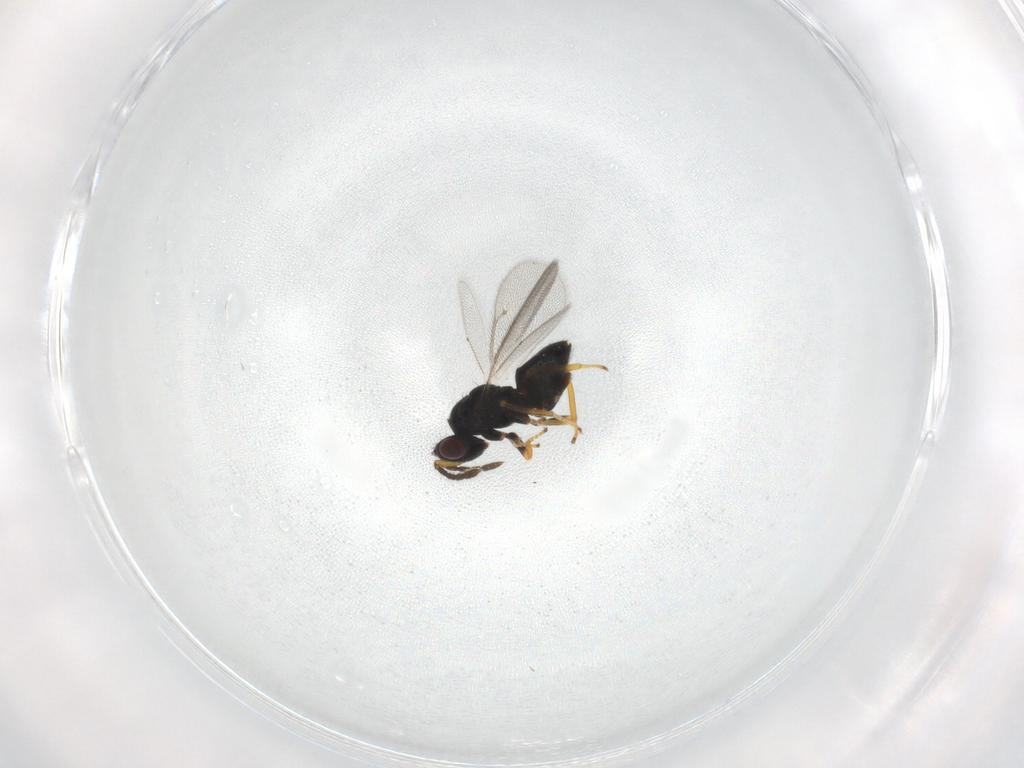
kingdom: Animalia
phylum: Arthropoda
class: Insecta
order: Hymenoptera
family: Eulophidae
